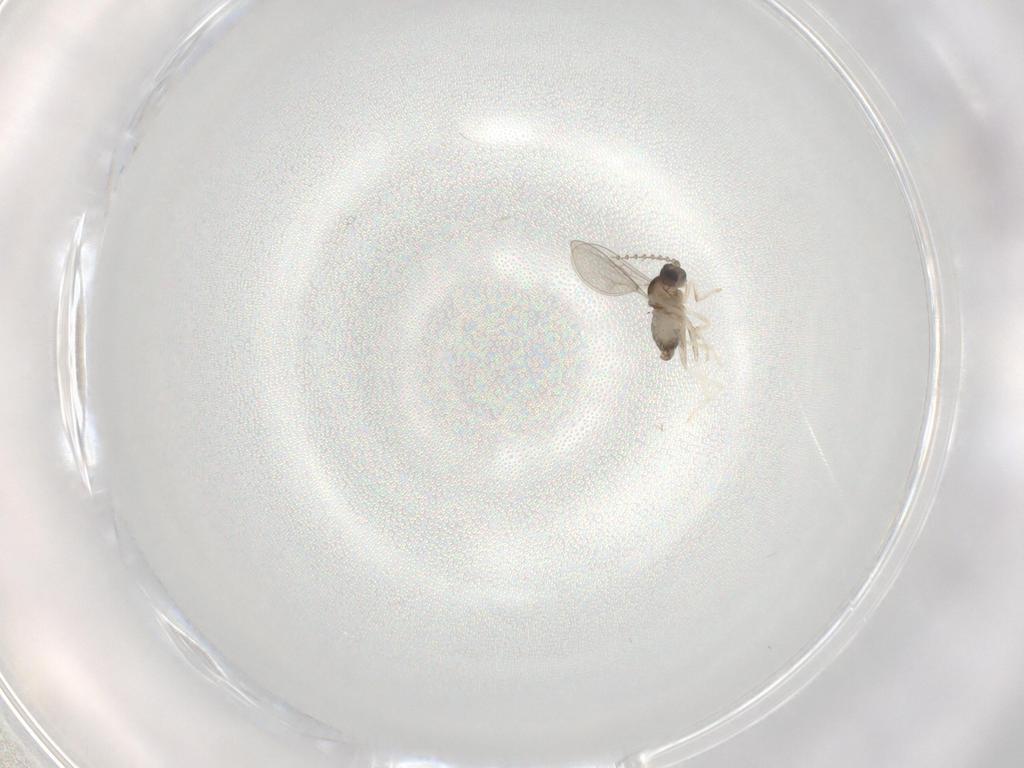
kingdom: Animalia
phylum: Arthropoda
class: Insecta
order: Diptera
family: Cecidomyiidae
